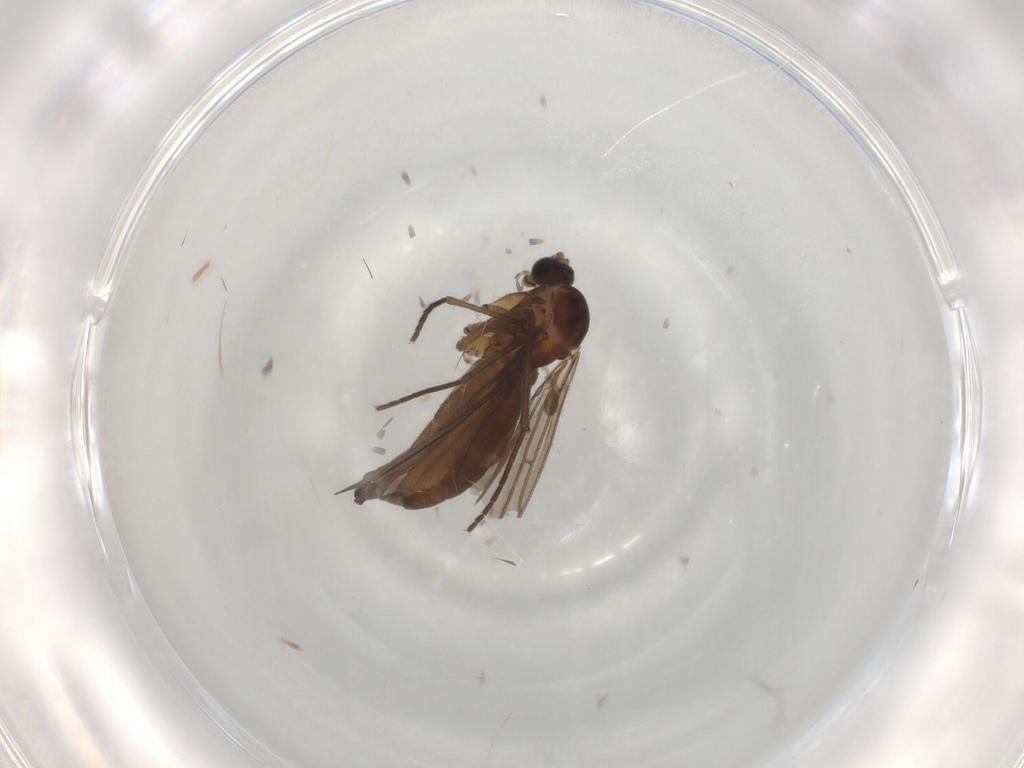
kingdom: Animalia
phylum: Arthropoda
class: Insecta
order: Diptera
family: Sciaridae
